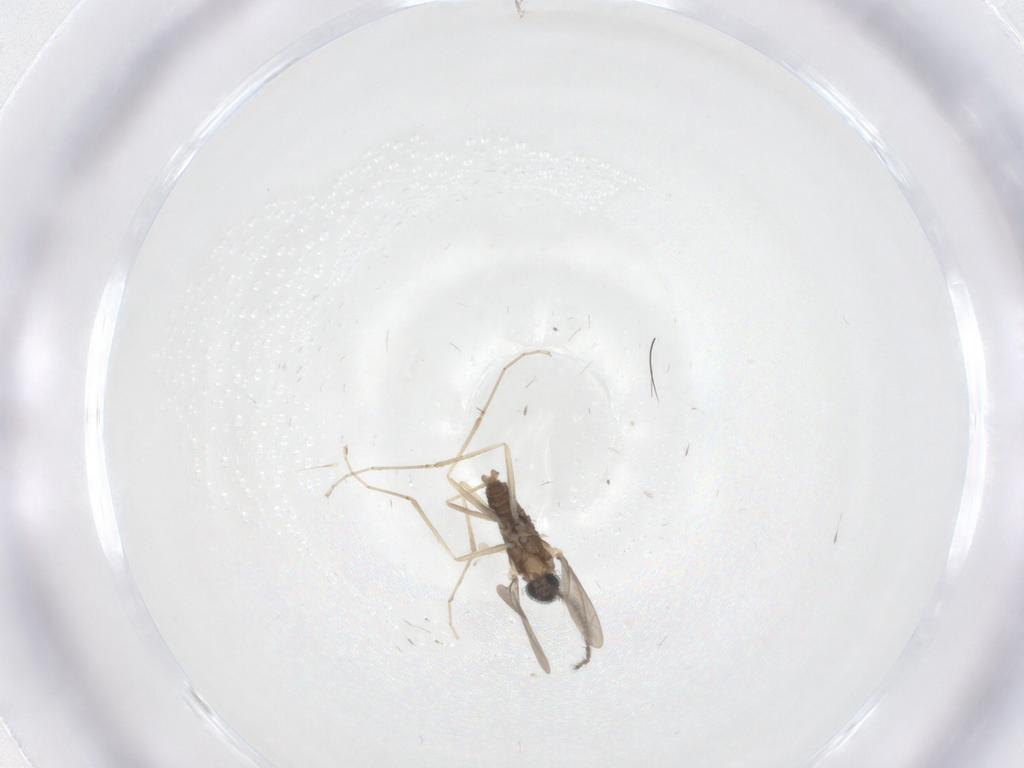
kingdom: Animalia
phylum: Arthropoda
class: Insecta
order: Diptera
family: Cecidomyiidae
